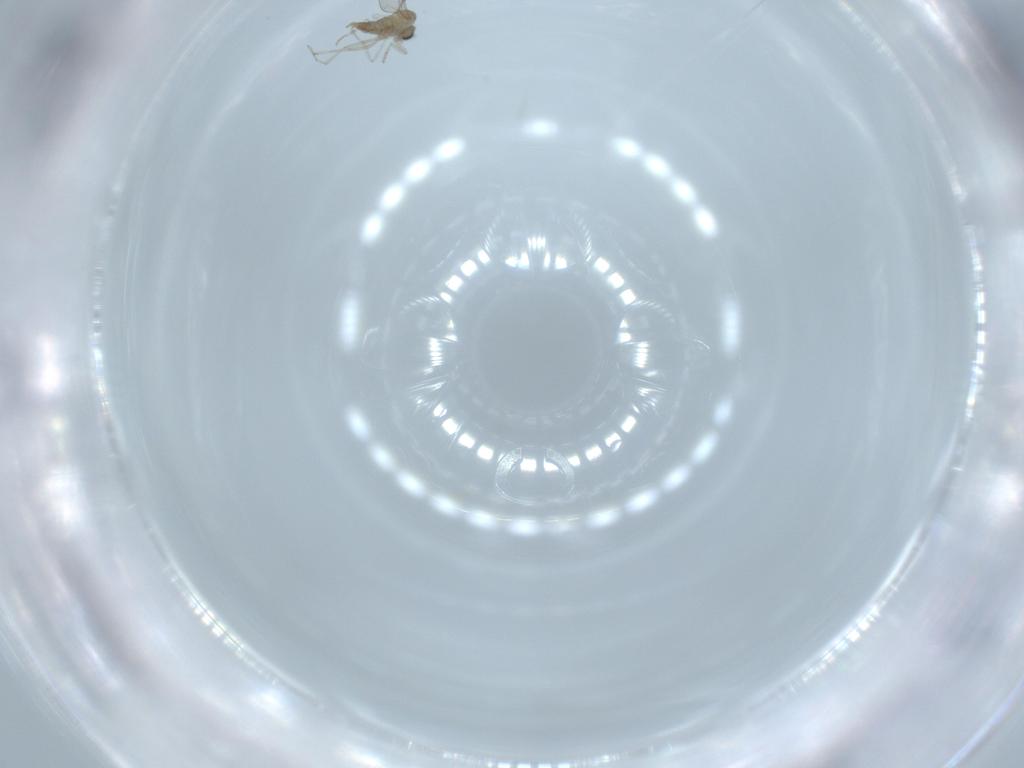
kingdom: Animalia
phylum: Arthropoda
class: Insecta
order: Diptera
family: Cecidomyiidae
